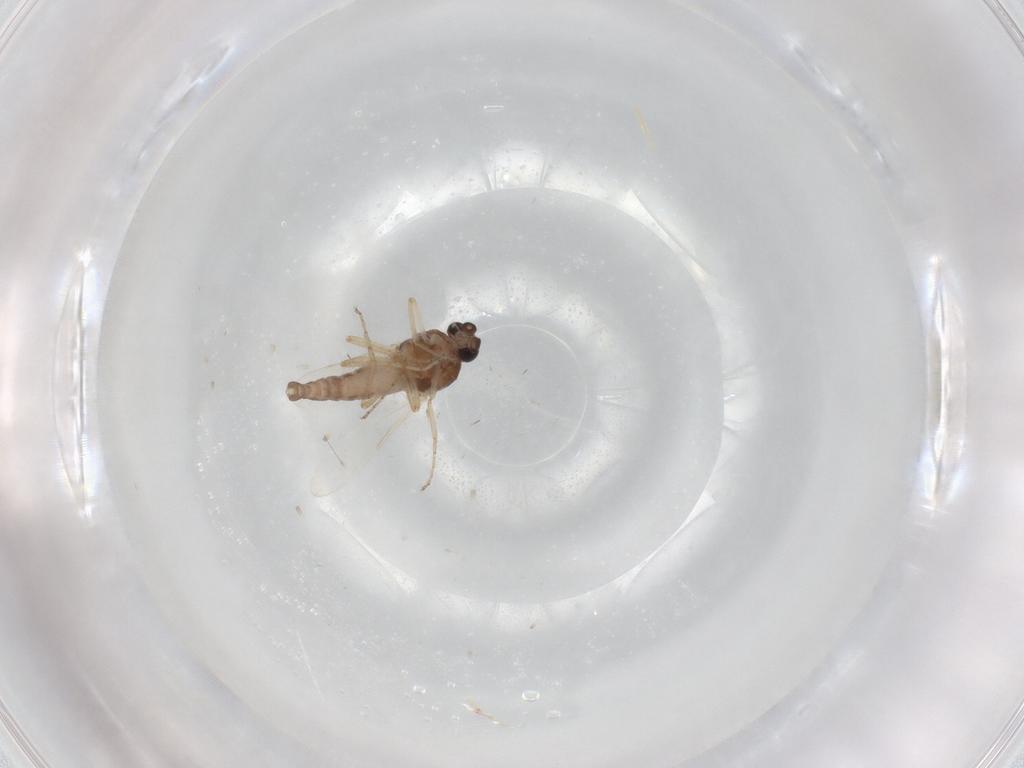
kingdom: Animalia
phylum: Arthropoda
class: Insecta
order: Diptera
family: Ceratopogonidae
